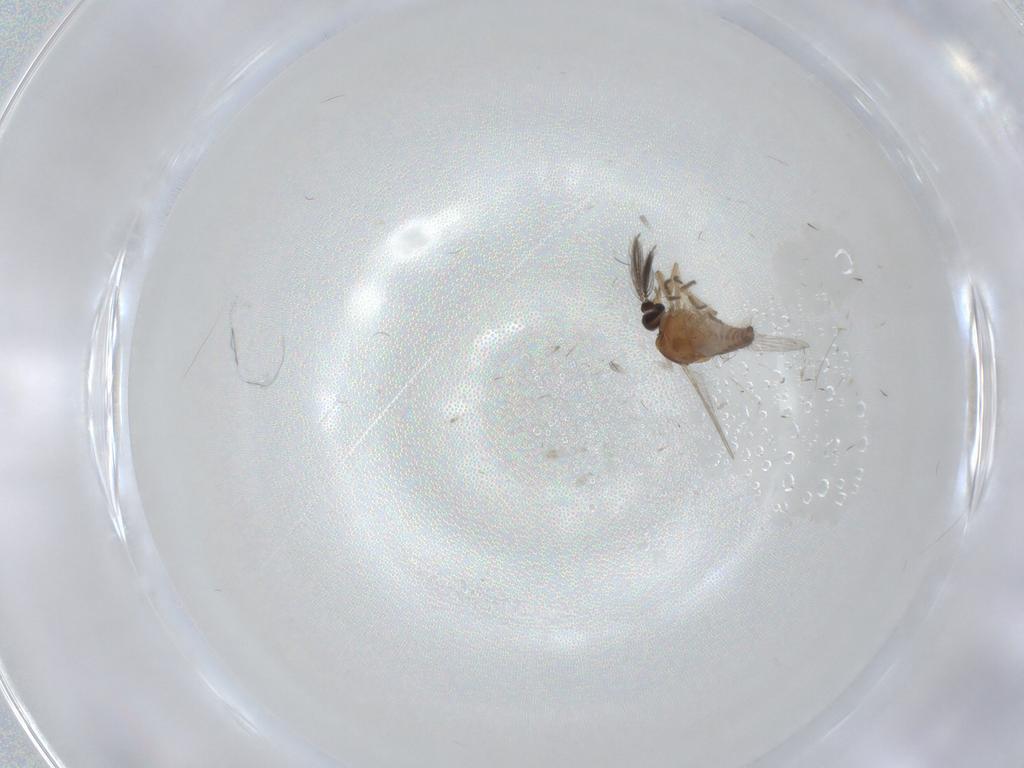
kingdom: Animalia
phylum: Arthropoda
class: Insecta
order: Diptera
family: Ceratopogonidae
